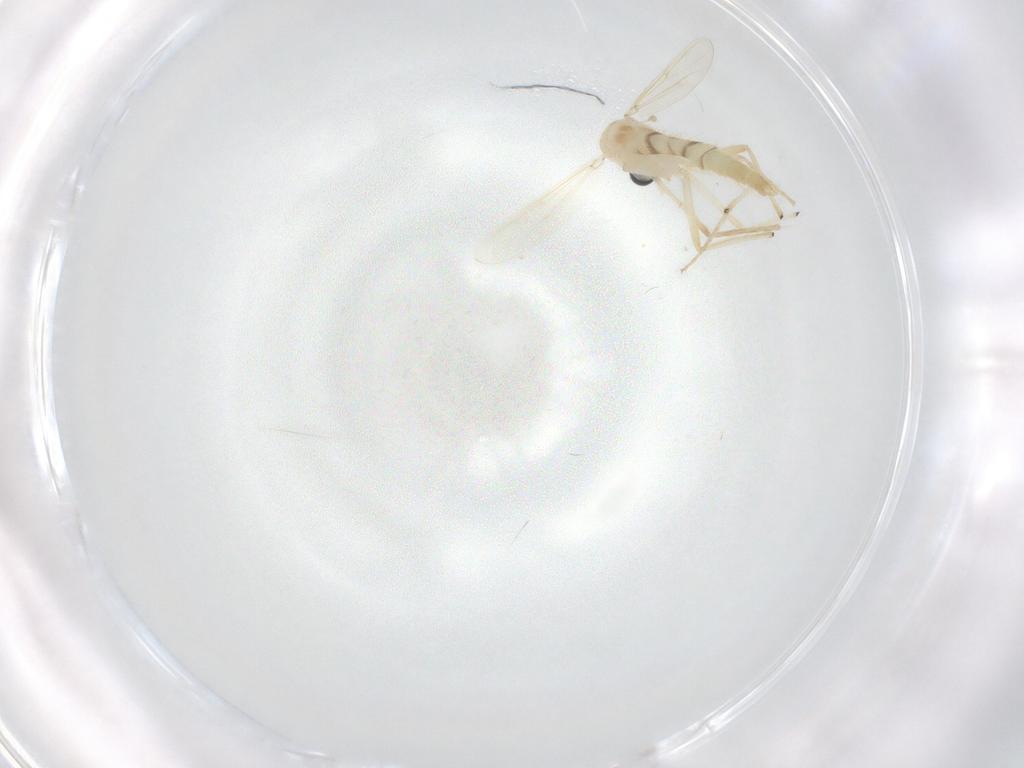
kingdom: Animalia
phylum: Arthropoda
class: Insecta
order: Diptera
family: Chironomidae
